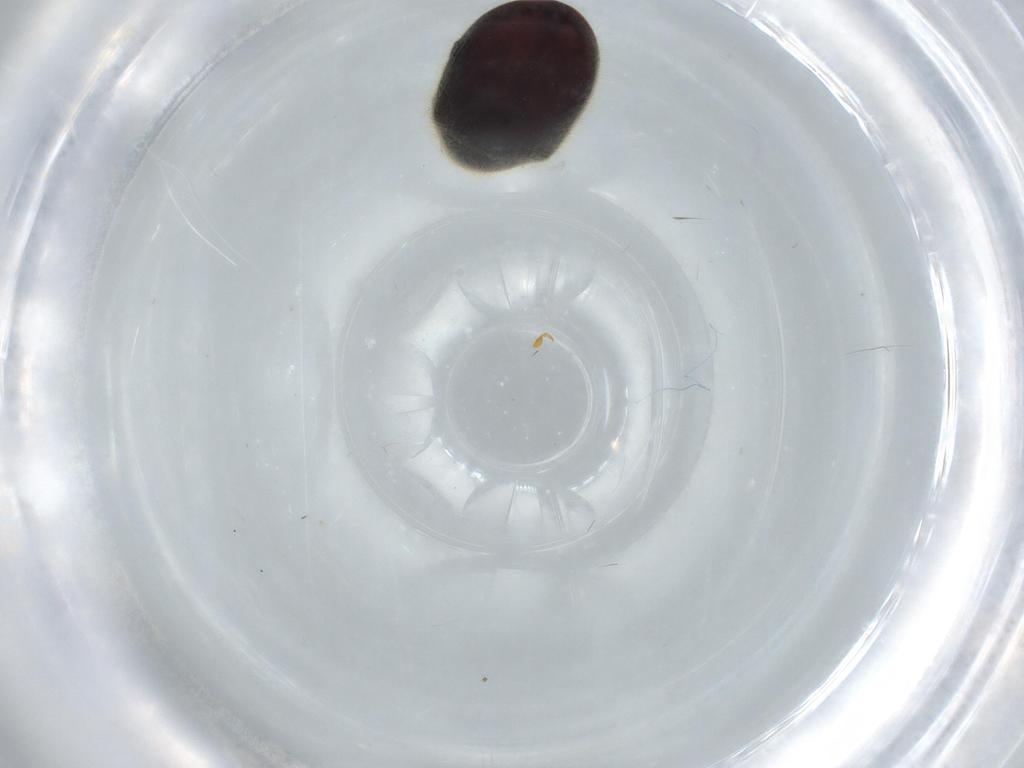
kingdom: Animalia
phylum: Arthropoda
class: Insecta
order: Coleoptera
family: Ptinidae
